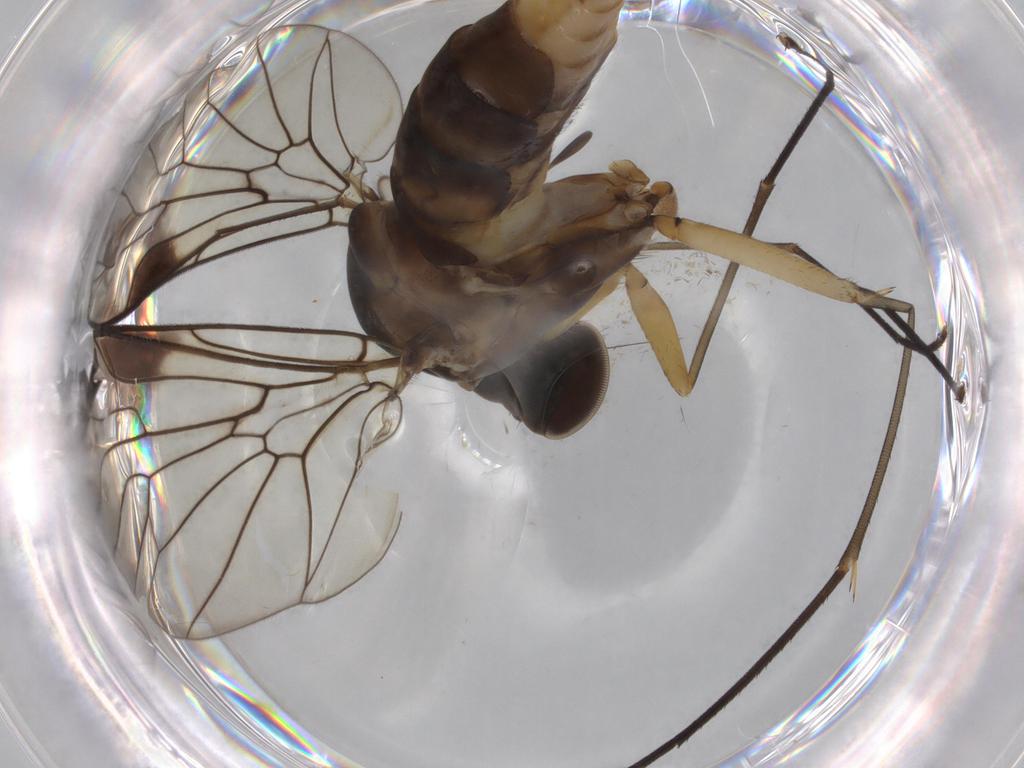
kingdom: Animalia
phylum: Arthropoda
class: Insecta
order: Diptera
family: Cecidomyiidae
